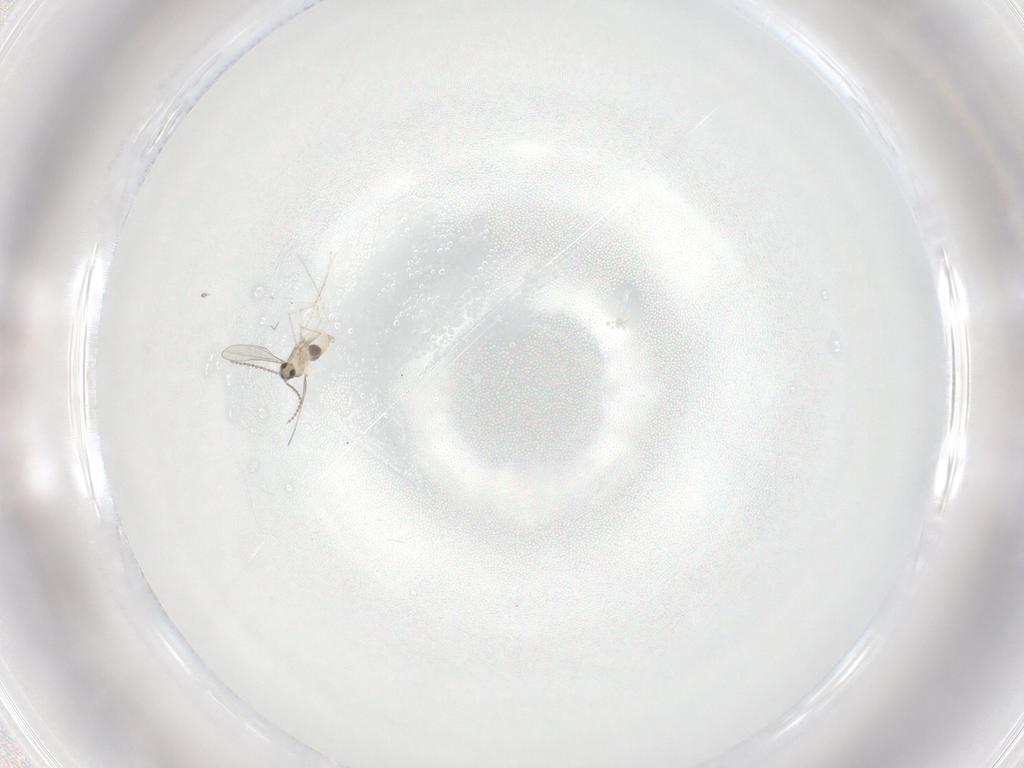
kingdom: Animalia
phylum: Arthropoda
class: Insecta
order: Diptera
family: Cecidomyiidae
